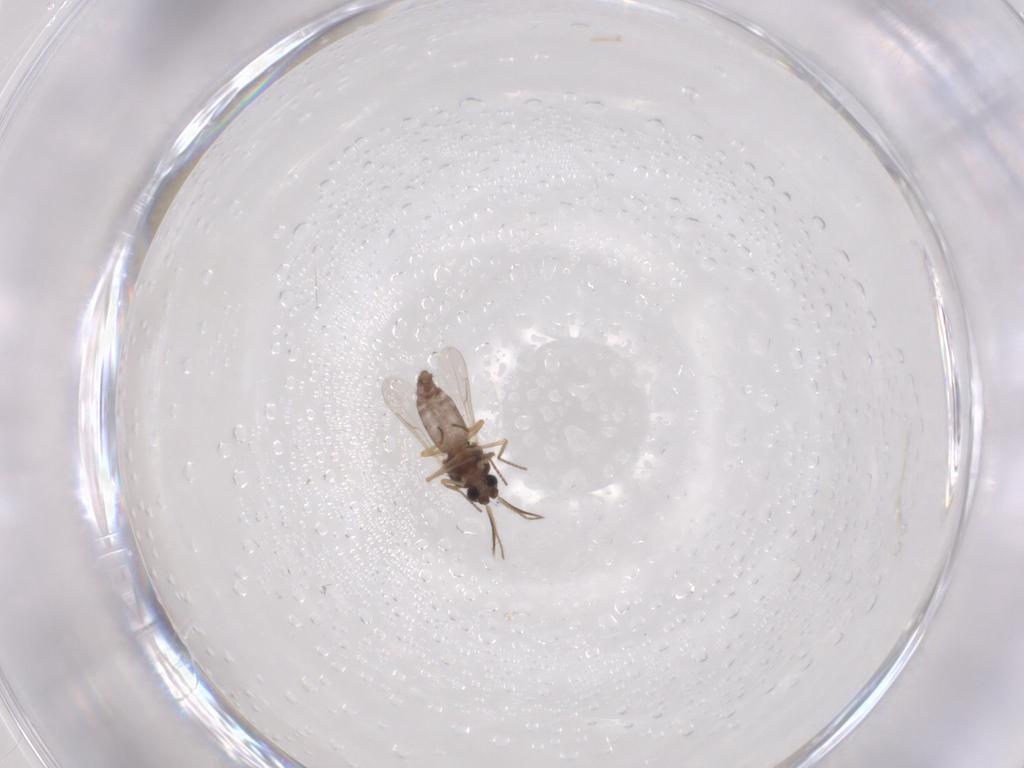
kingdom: Animalia
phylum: Arthropoda
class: Insecta
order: Diptera
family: Ceratopogonidae
